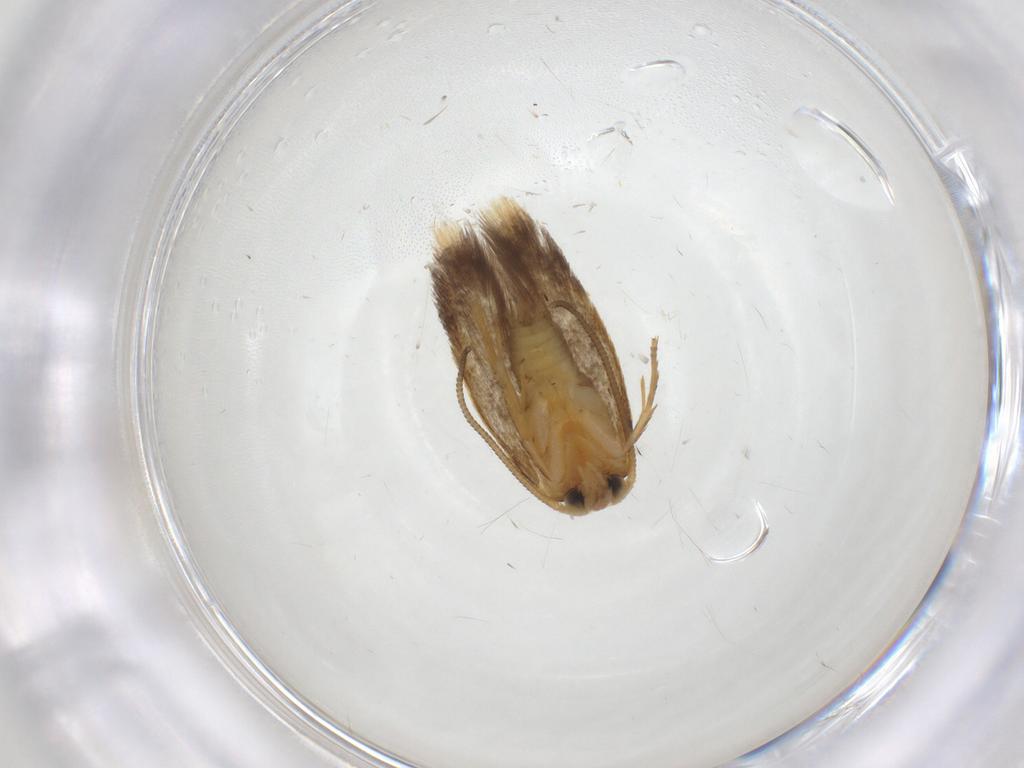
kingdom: Animalia
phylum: Arthropoda
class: Insecta
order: Lepidoptera
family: Nepticulidae
